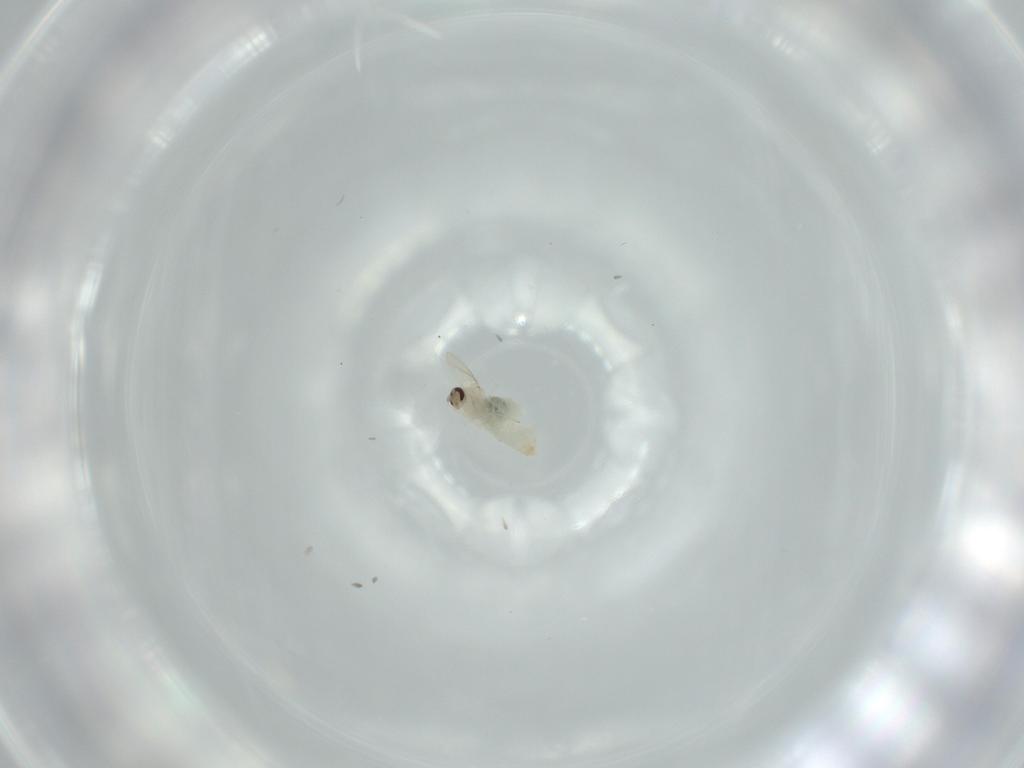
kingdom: Animalia
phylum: Arthropoda
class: Insecta
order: Diptera
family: Cecidomyiidae
